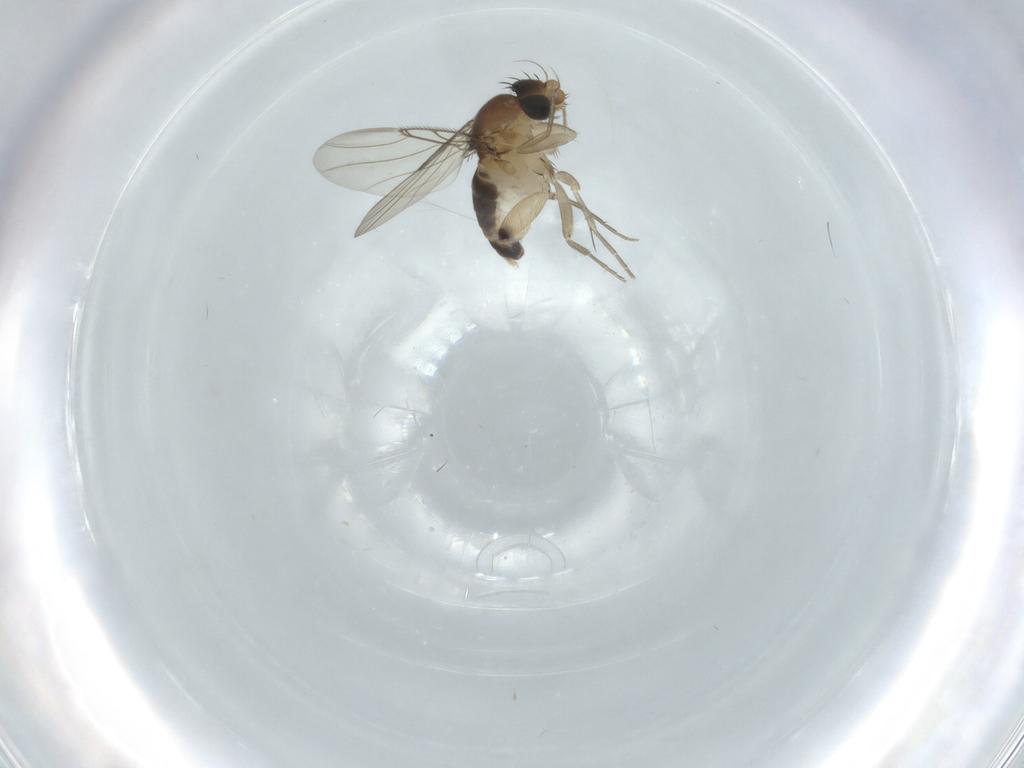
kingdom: Animalia
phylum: Arthropoda
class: Insecta
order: Diptera
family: Phoridae
